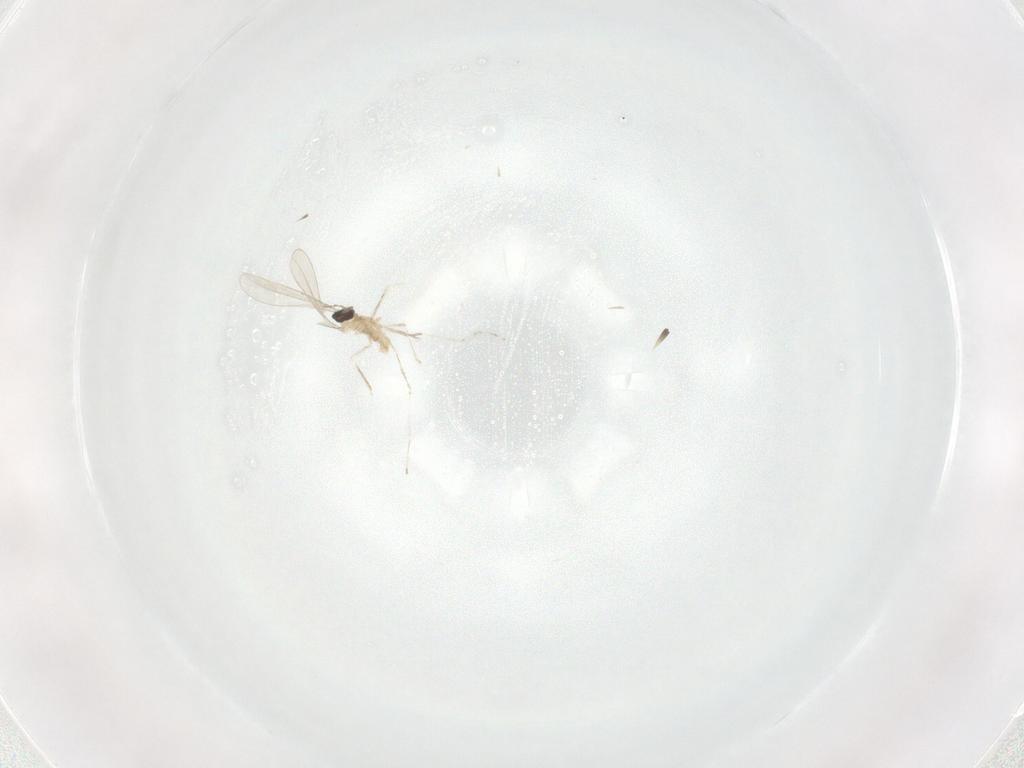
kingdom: Animalia
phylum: Arthropoda
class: Insecta
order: Diptera
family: Cecidomyiidae
